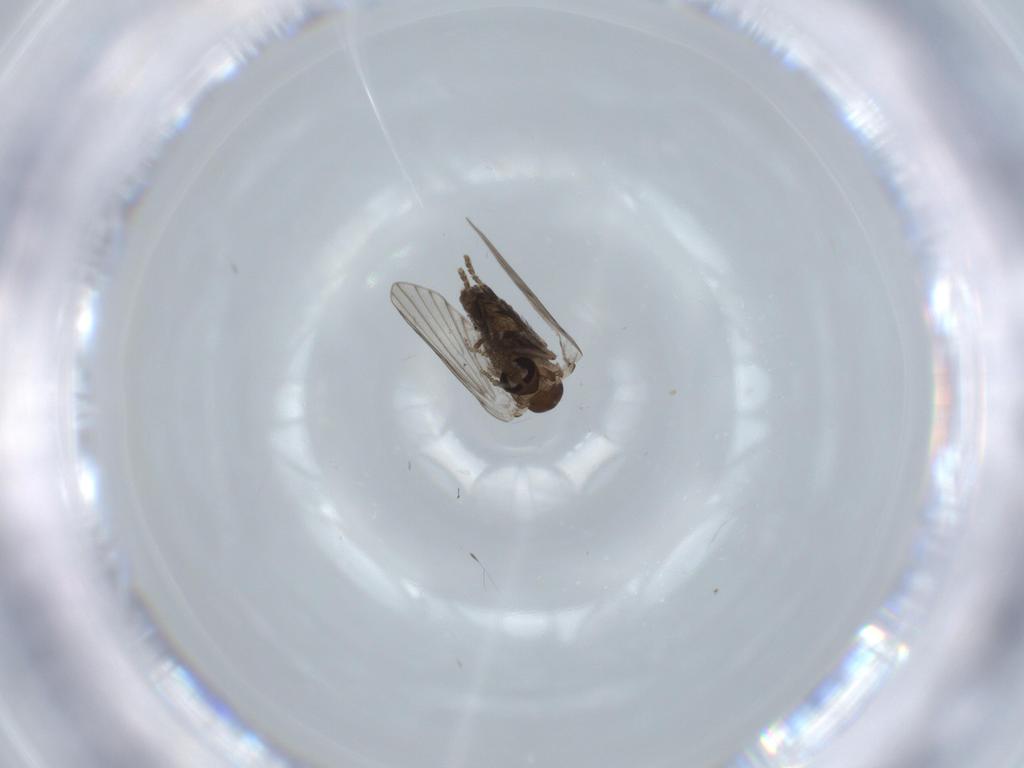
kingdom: Animalia
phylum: Arthropoda
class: Insecta
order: Diptera
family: Psychodidae
